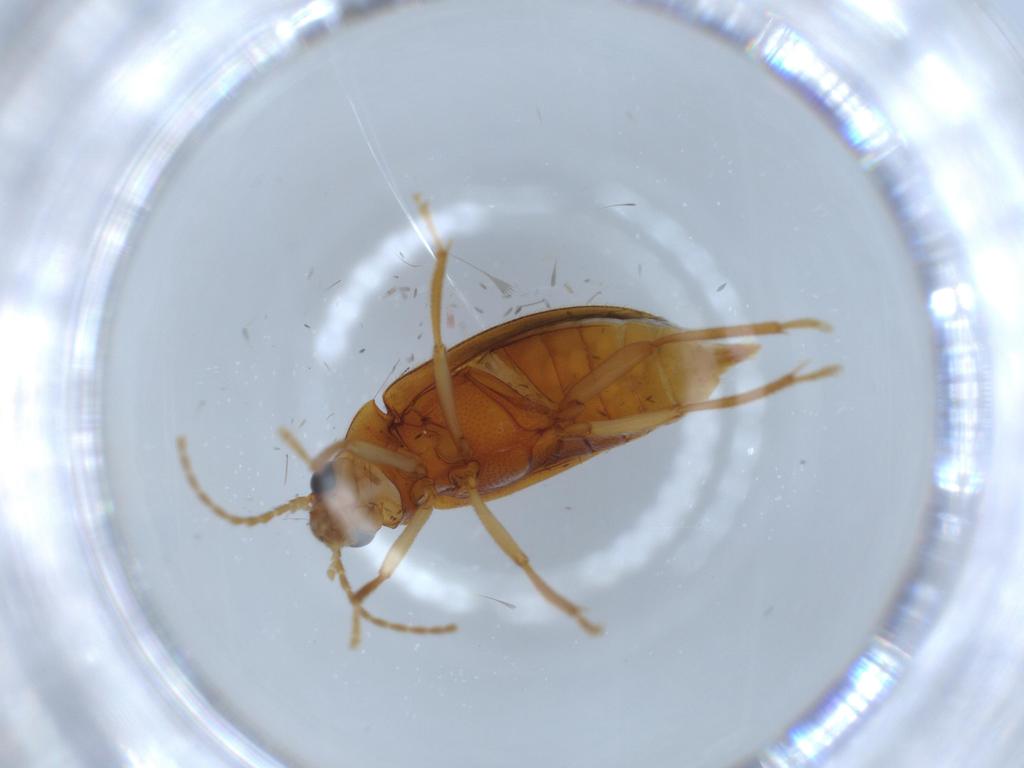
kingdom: Animalia
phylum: Arthropoda
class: Insecta
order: Coleoptera
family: Ptilodactylidae
